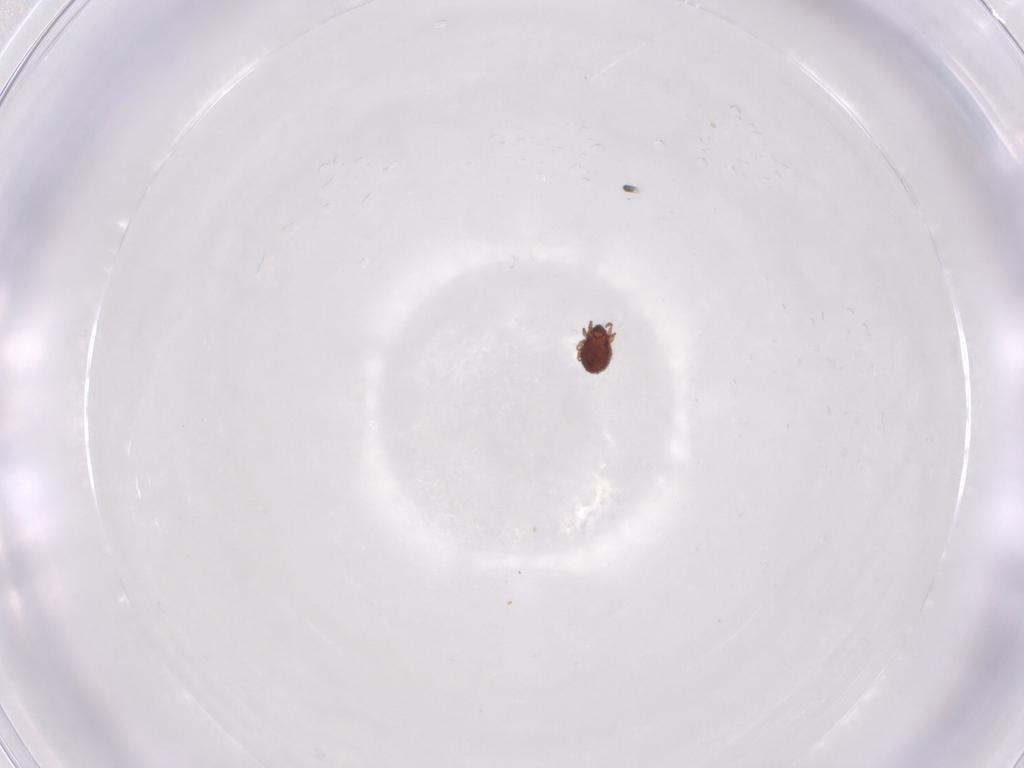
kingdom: Animalia
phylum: Arthropoda
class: Arachnida
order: Sarcoptiformes
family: Scheloribatidae
